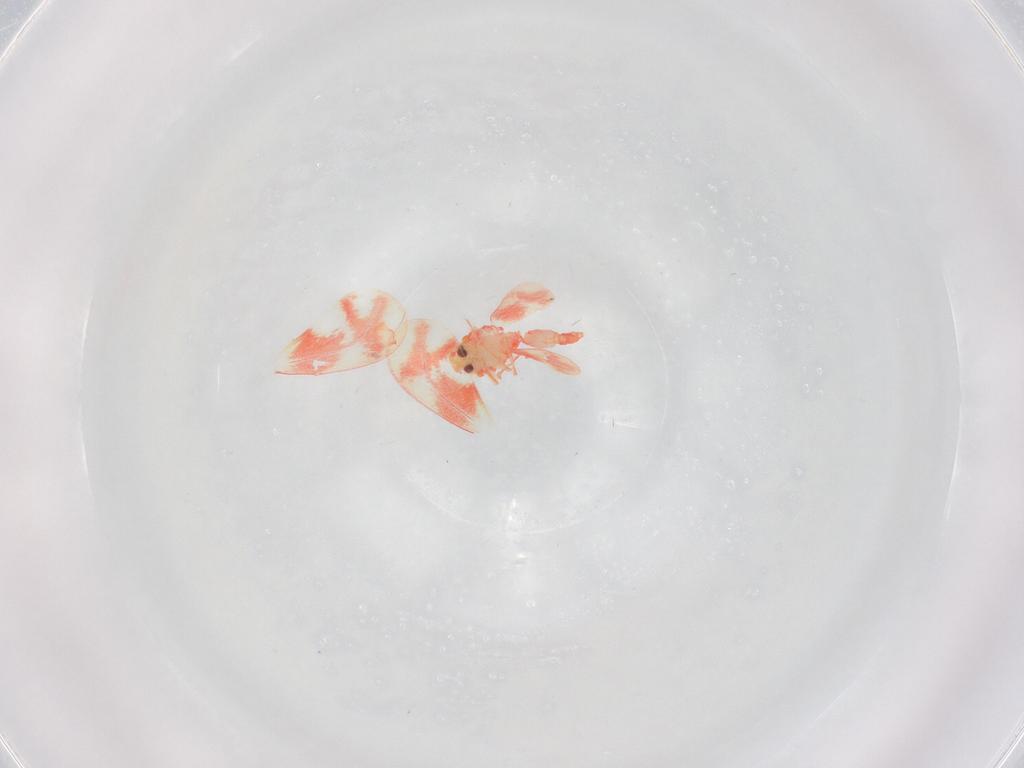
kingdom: Animalia
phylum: Arthropoda
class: Insecta
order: Hemiptera
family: Aleyrodidae
